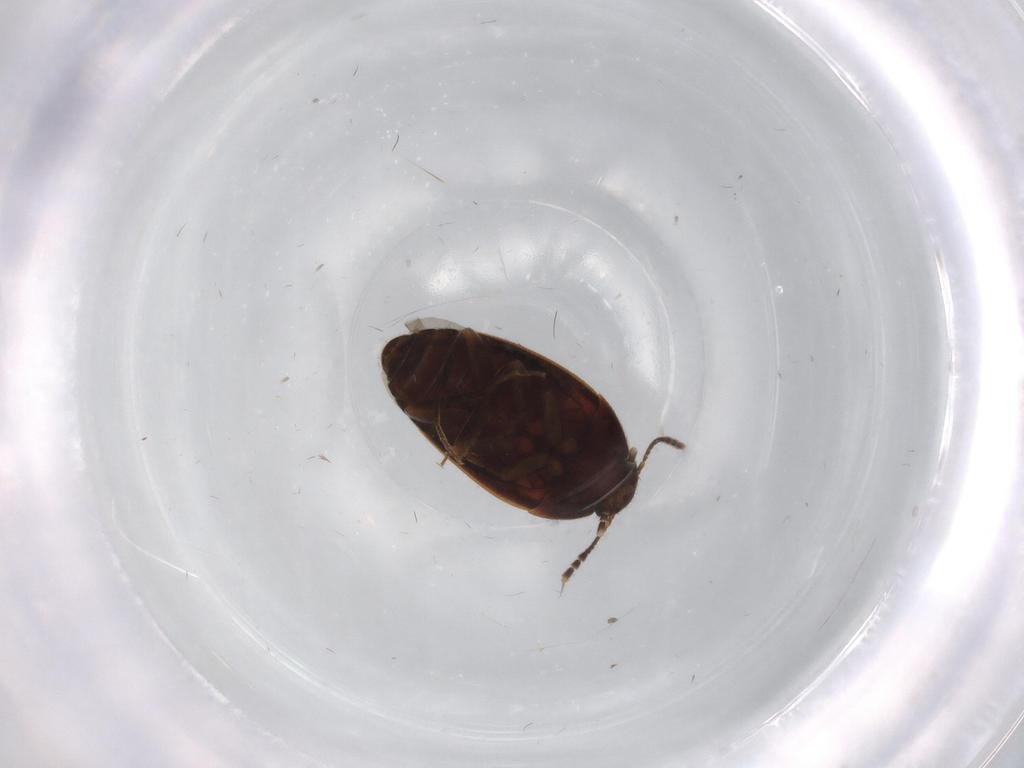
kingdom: Animalia
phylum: Arthropoda
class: Insecta
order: Coleoptera
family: Mycetophagidae
